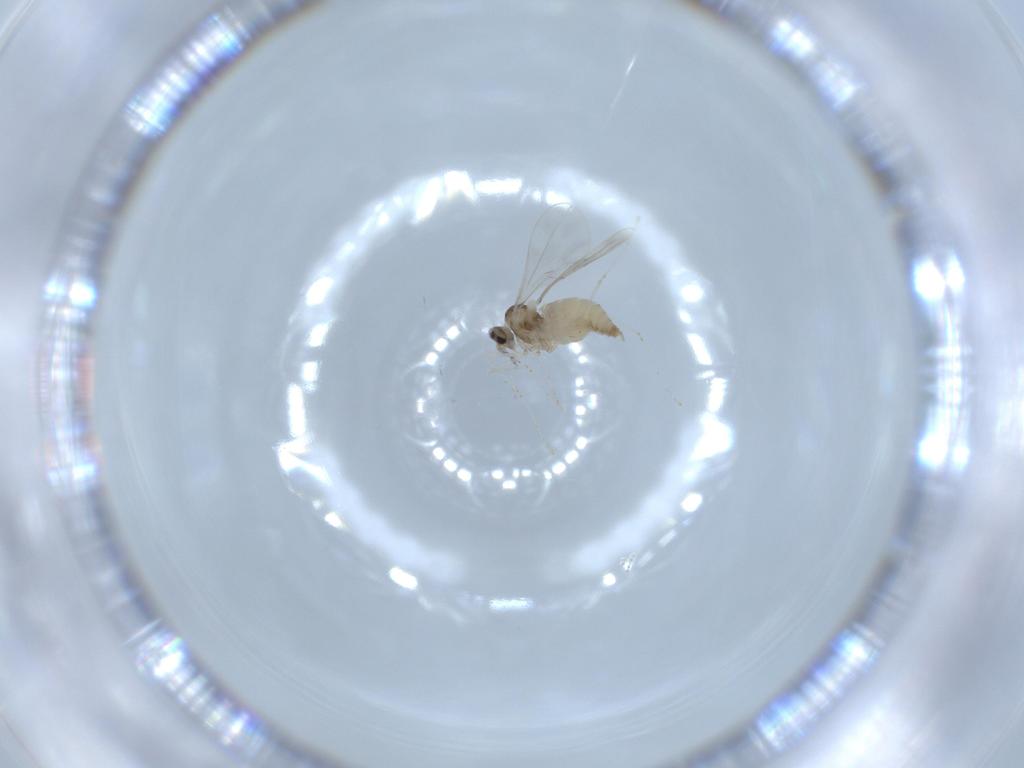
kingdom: Animalia
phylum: Arthropoda
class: Insecta
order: Diptera
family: Cecidomyiidae
